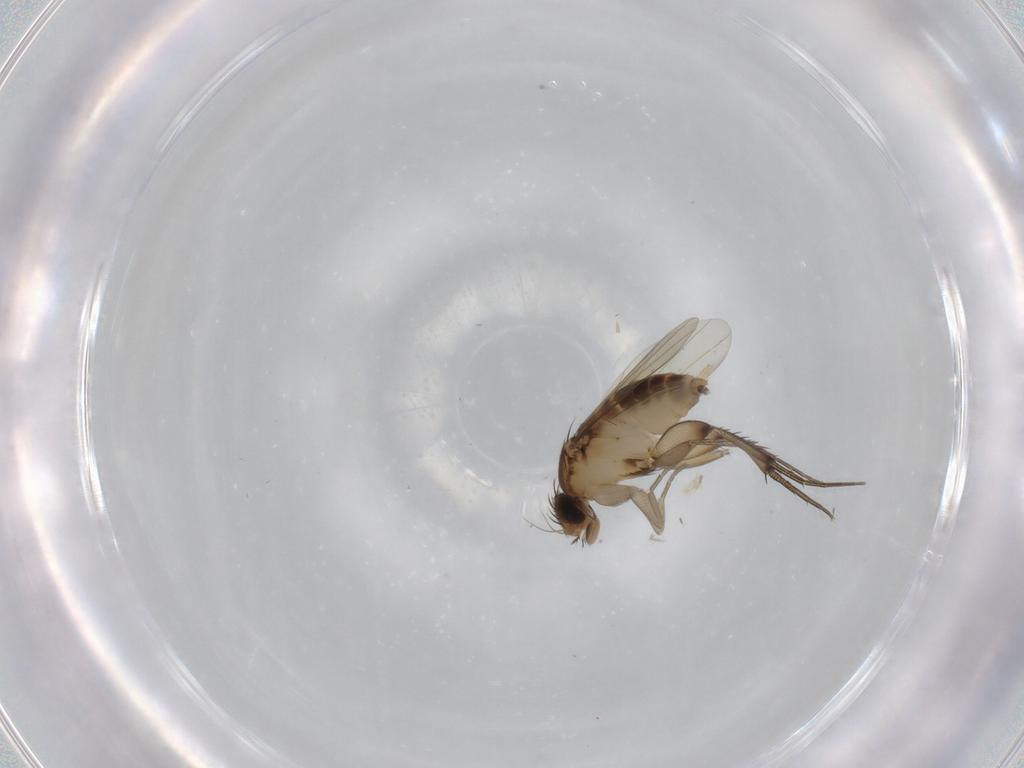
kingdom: Animalia
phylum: Arthropoda
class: Insecta
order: Diptera
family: Phoridae
